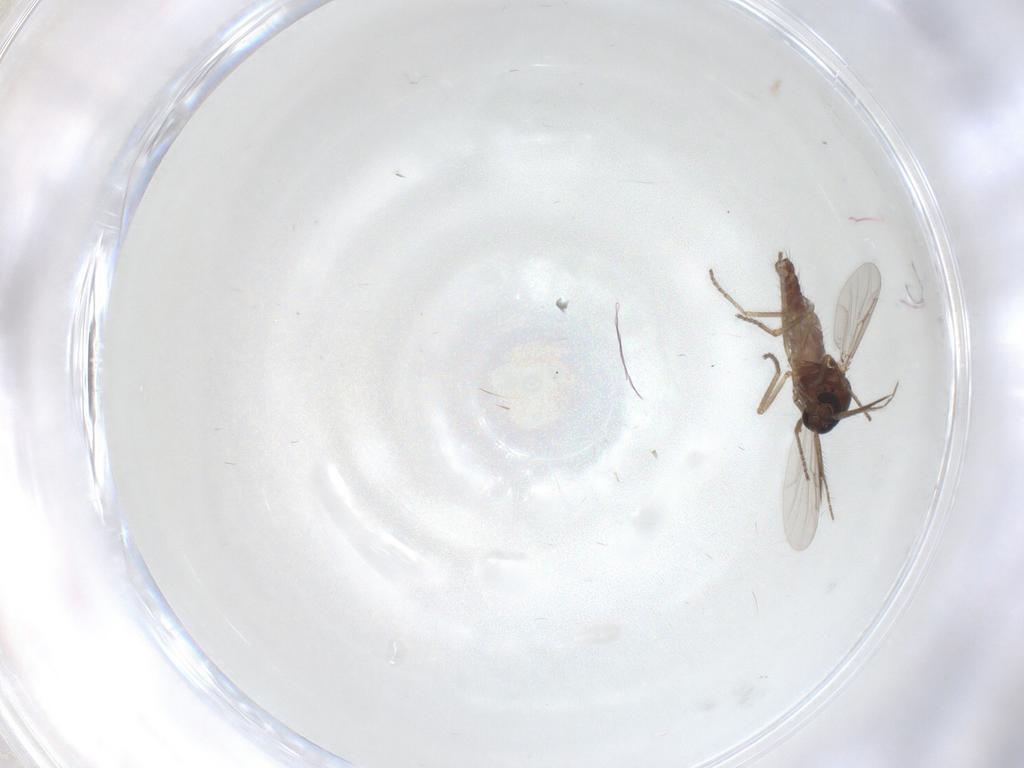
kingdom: Animalia
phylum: Arthropoda
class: Insecta
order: Diptera
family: Ceratopogonidae
